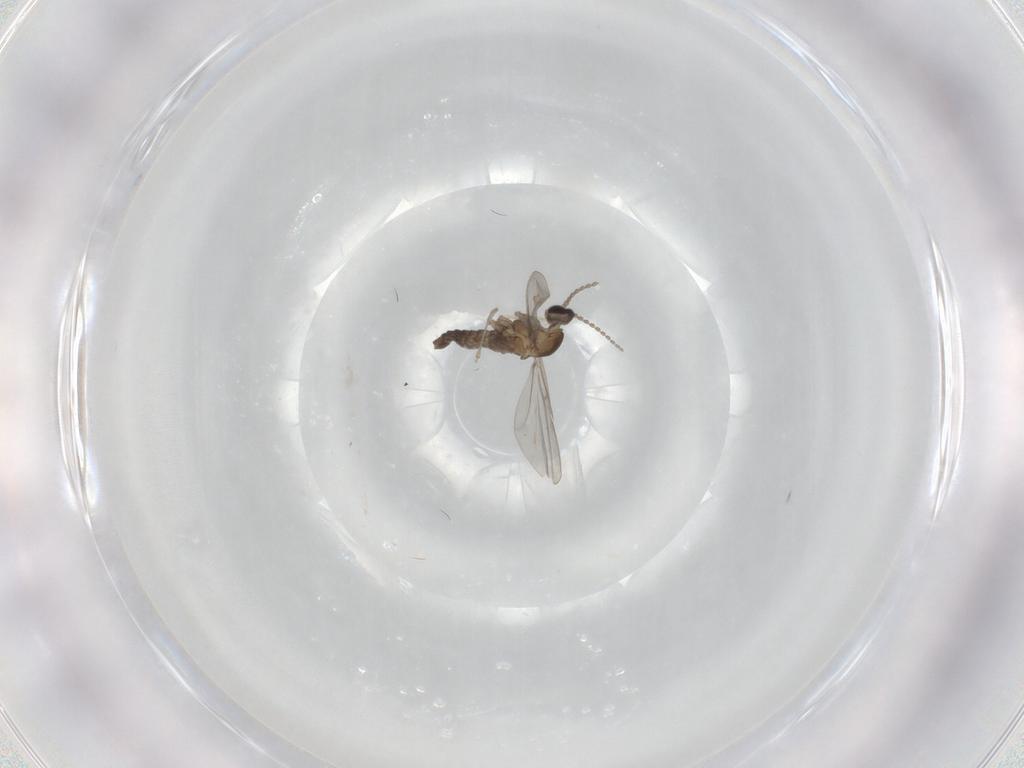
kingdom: Animalia
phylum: Arthropoda
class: Insecta
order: Diptera
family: Cecidomyiidae
